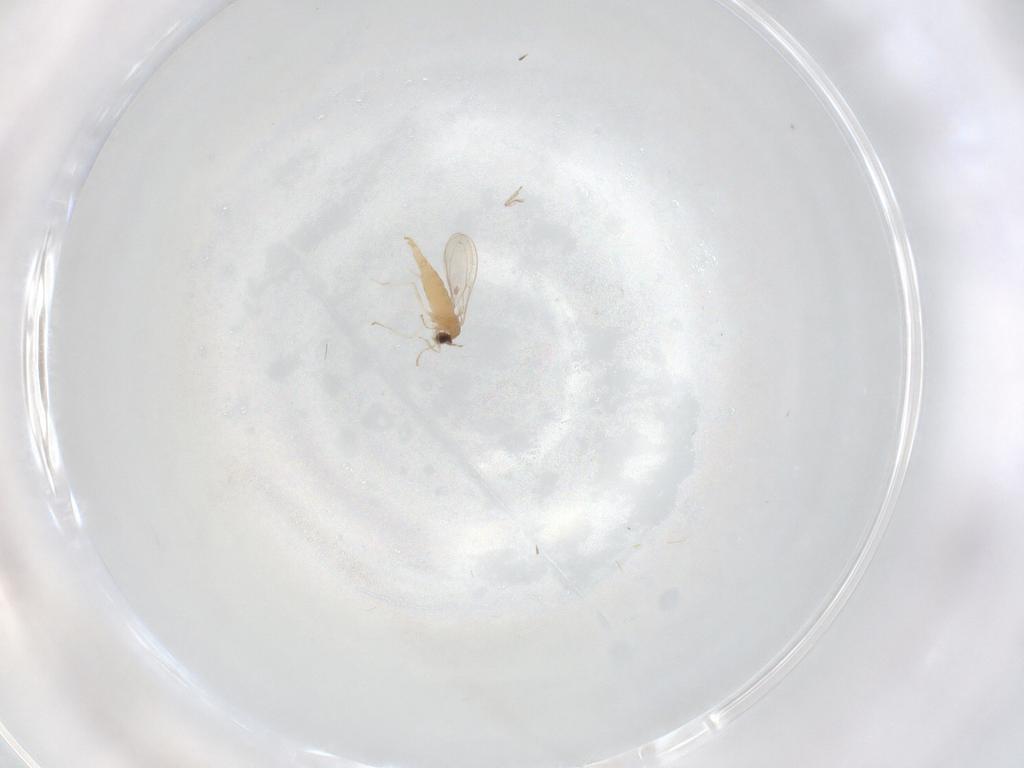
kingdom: Animalia
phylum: Arthropoda
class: Insecta
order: Diptera
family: Cecidomyiidae
